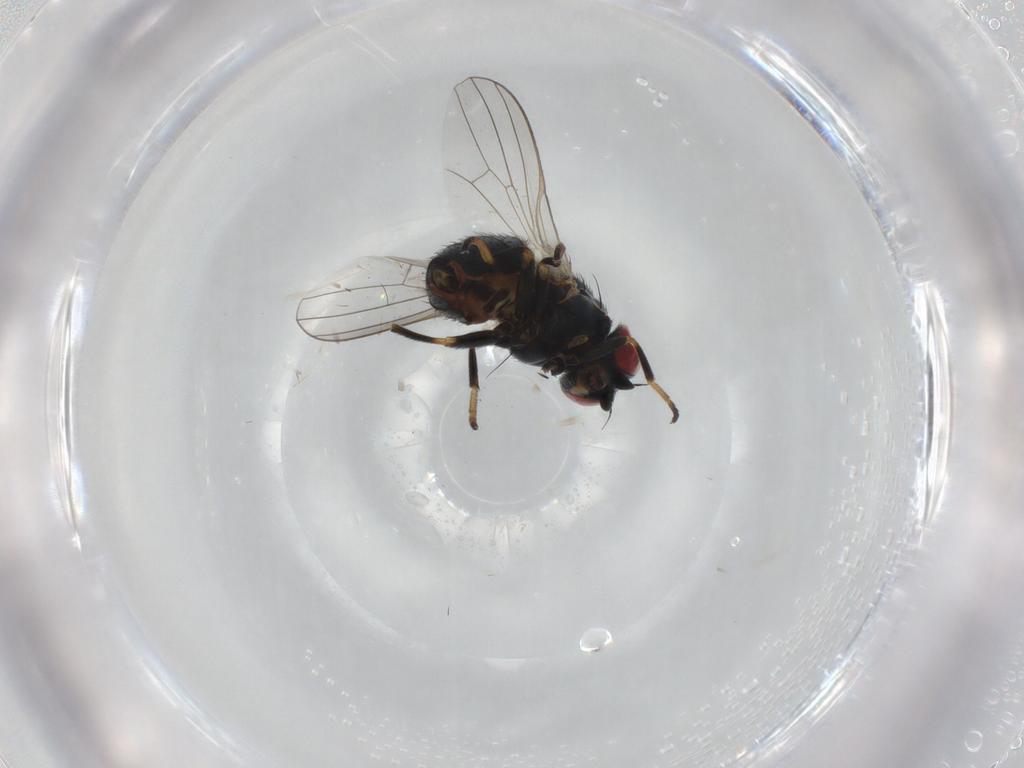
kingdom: Animalia
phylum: Arthropoda
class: Insecta
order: Diptera
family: Chamaemyiidae
